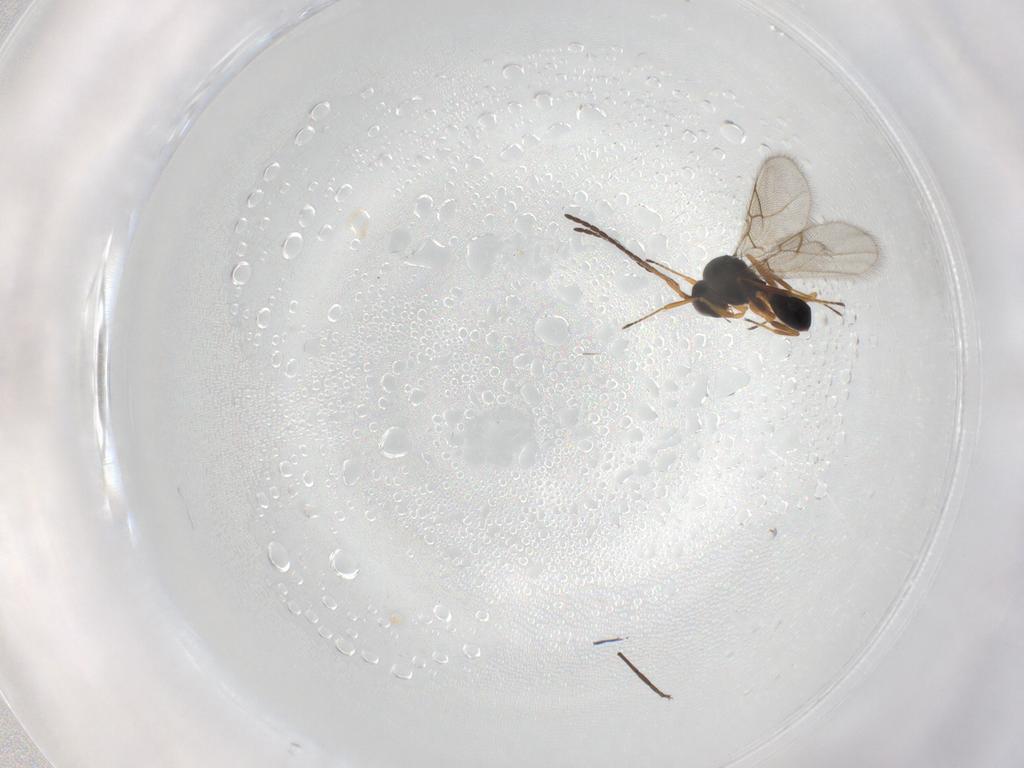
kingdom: Animalia
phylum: Arthropoda
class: Insecta
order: Hymenoptera
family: Figitidae
